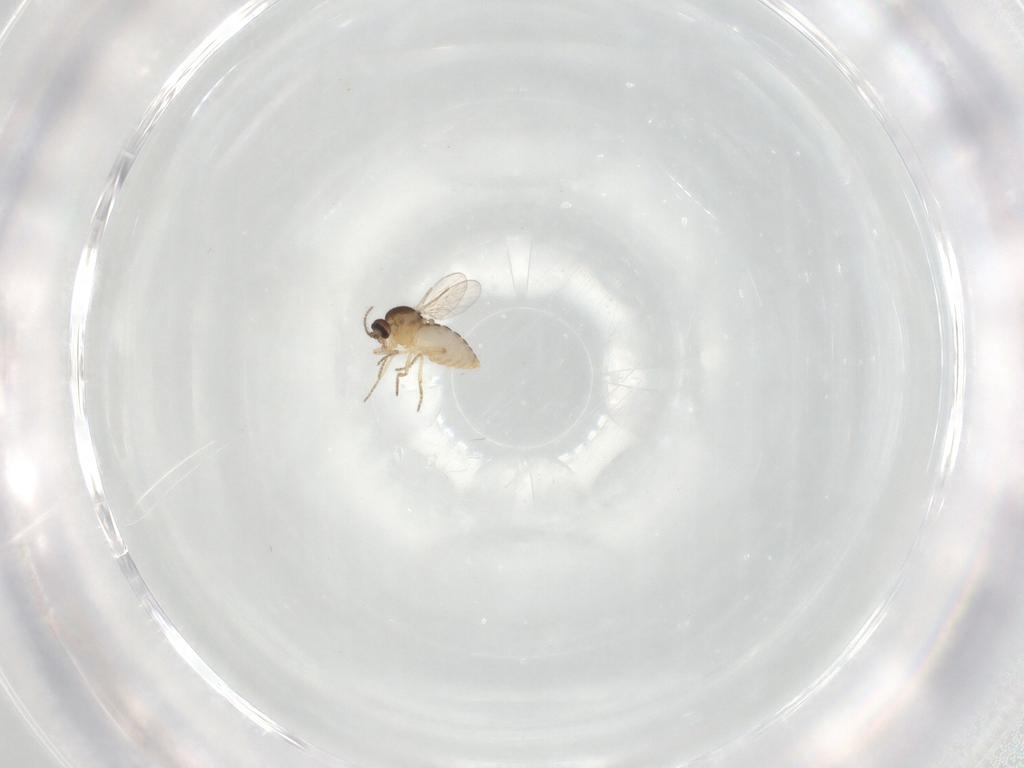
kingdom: Animalia
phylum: Arthropoda
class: Insecta
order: Diptera
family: Ceratopogonidae
